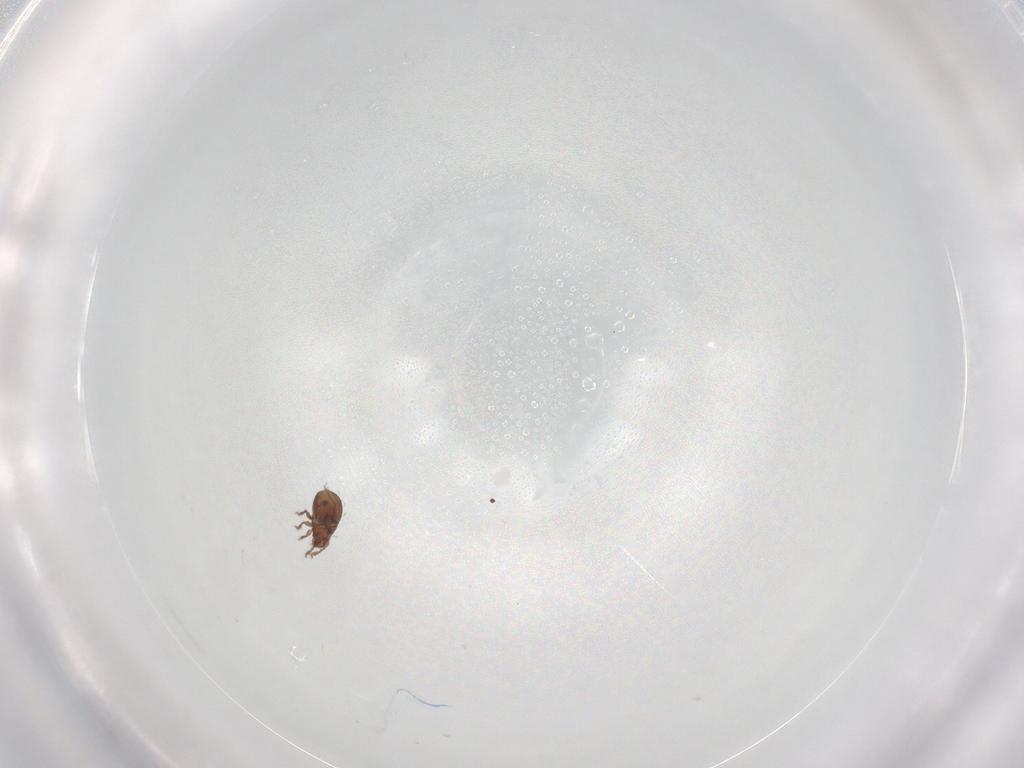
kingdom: Animalia
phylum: Arthropoda
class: Arachnida
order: Sarcoptiformes
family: Scheloribatidae
